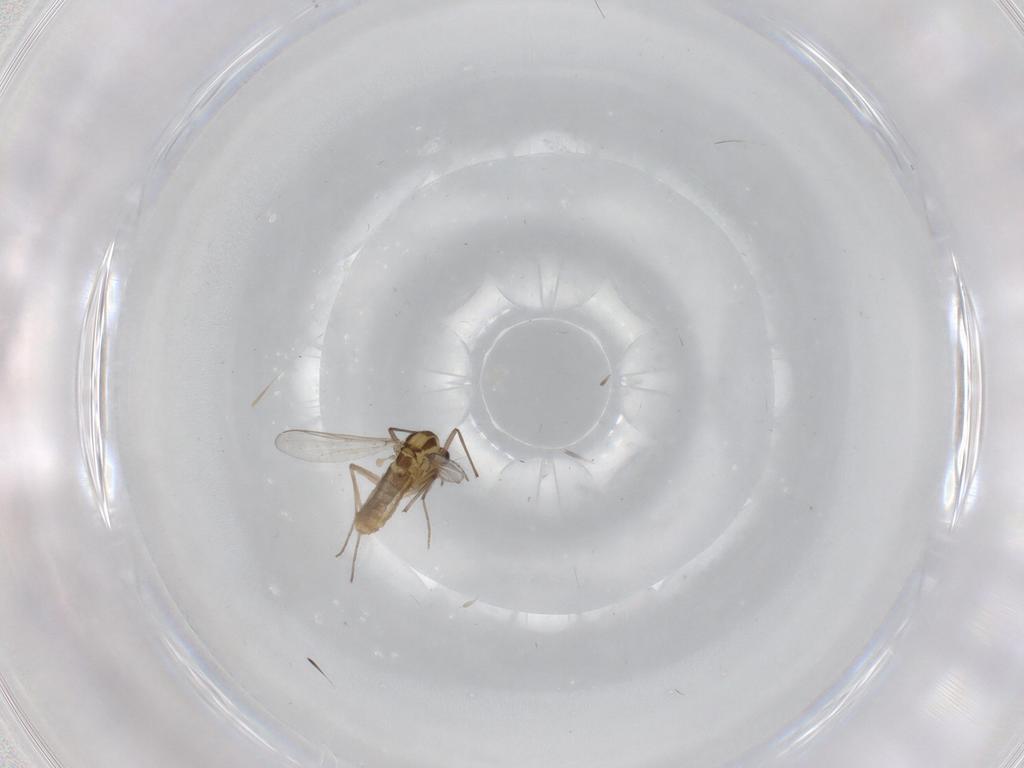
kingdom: Animalia
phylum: Arthropoda
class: Insecta
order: Diptera
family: Chironomidae
